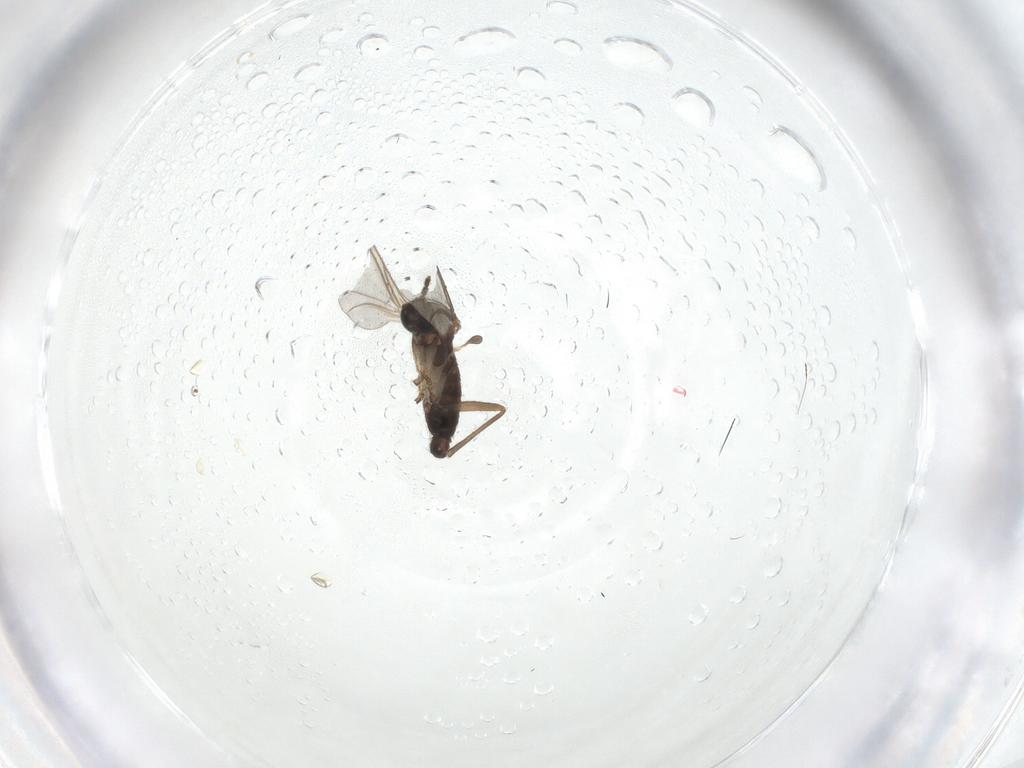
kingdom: Animalia
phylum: Arthropoda
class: Insecta
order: Diptera
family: Sciaridae
